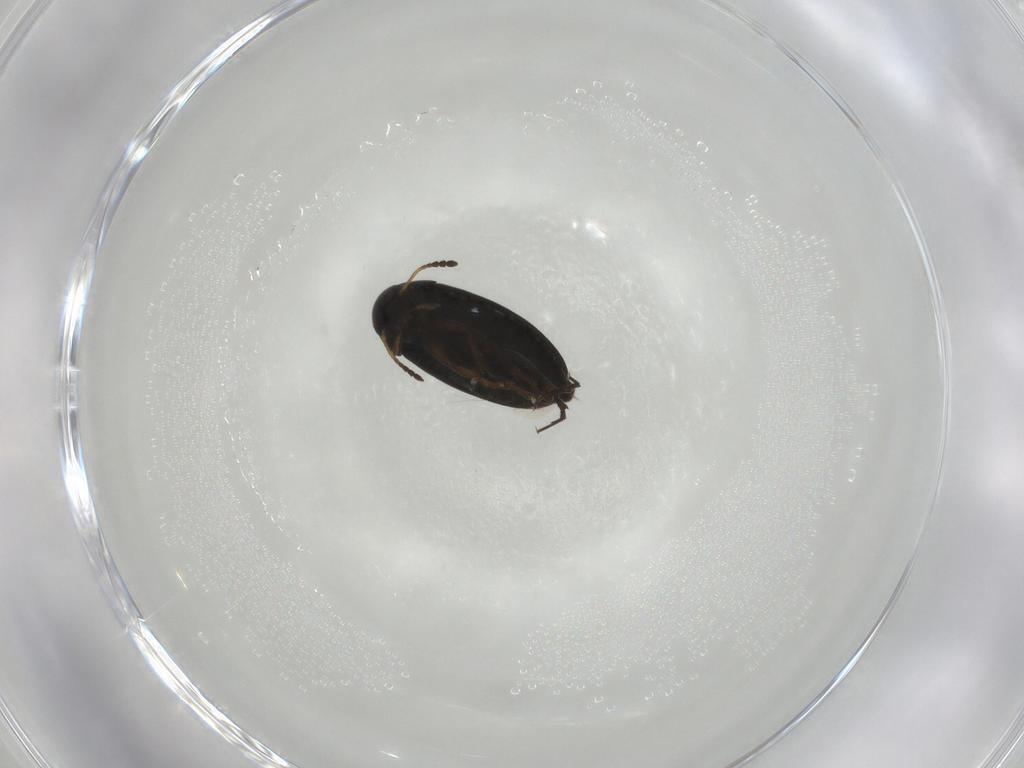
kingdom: Animalia
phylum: Arthropoda
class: Insecta
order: Coleoptera
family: Scraptiidae
